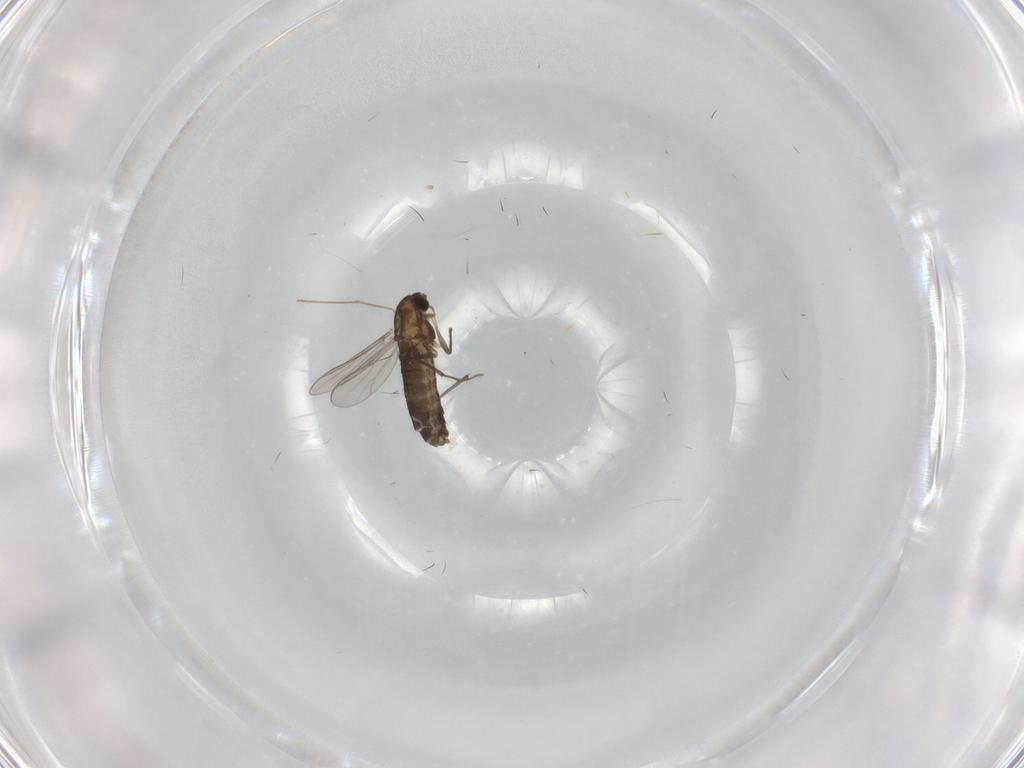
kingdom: Animalia
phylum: Arthropoda
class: Insecta
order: Diptera
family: Chironomidae
